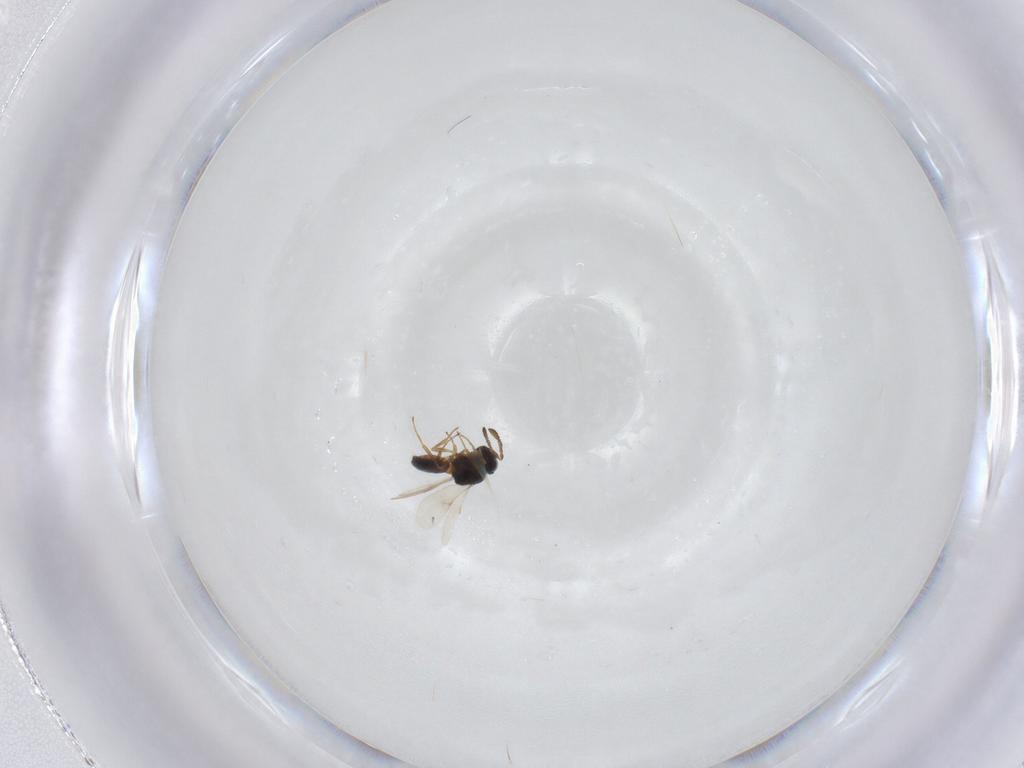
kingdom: Animalia
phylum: Arthropoda
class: Insecta
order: Hymenoptera
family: Scelionidae
